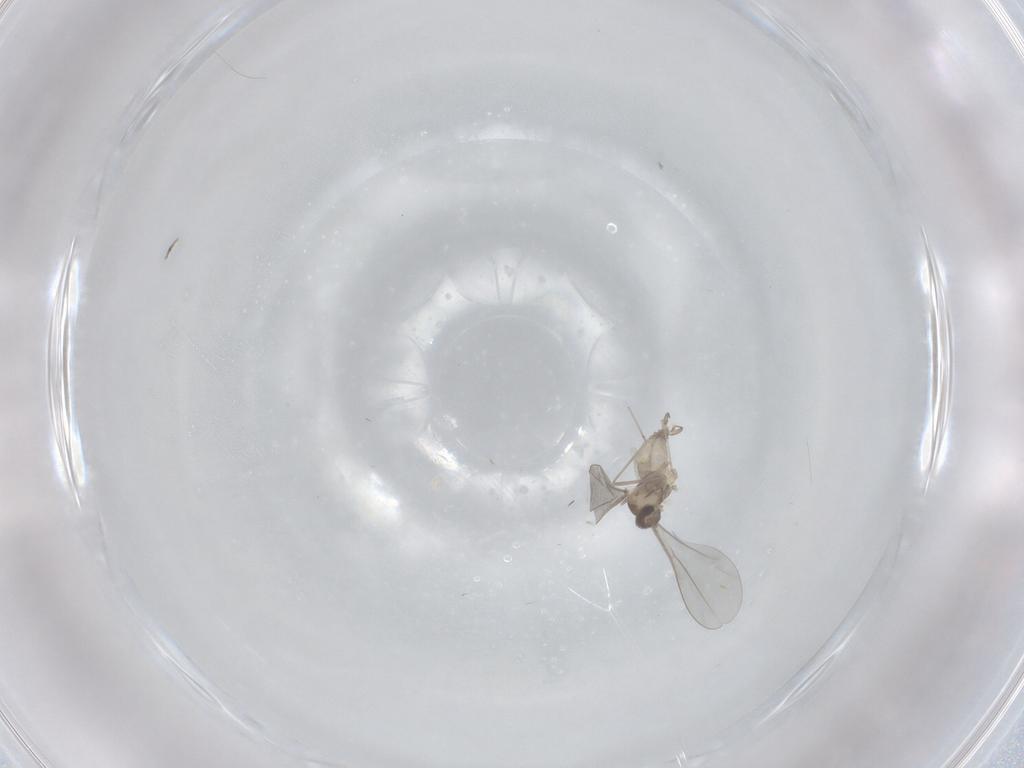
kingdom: Animalia
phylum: Arthropoda
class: Insecta
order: Diptera
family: Cecidomyiidae
